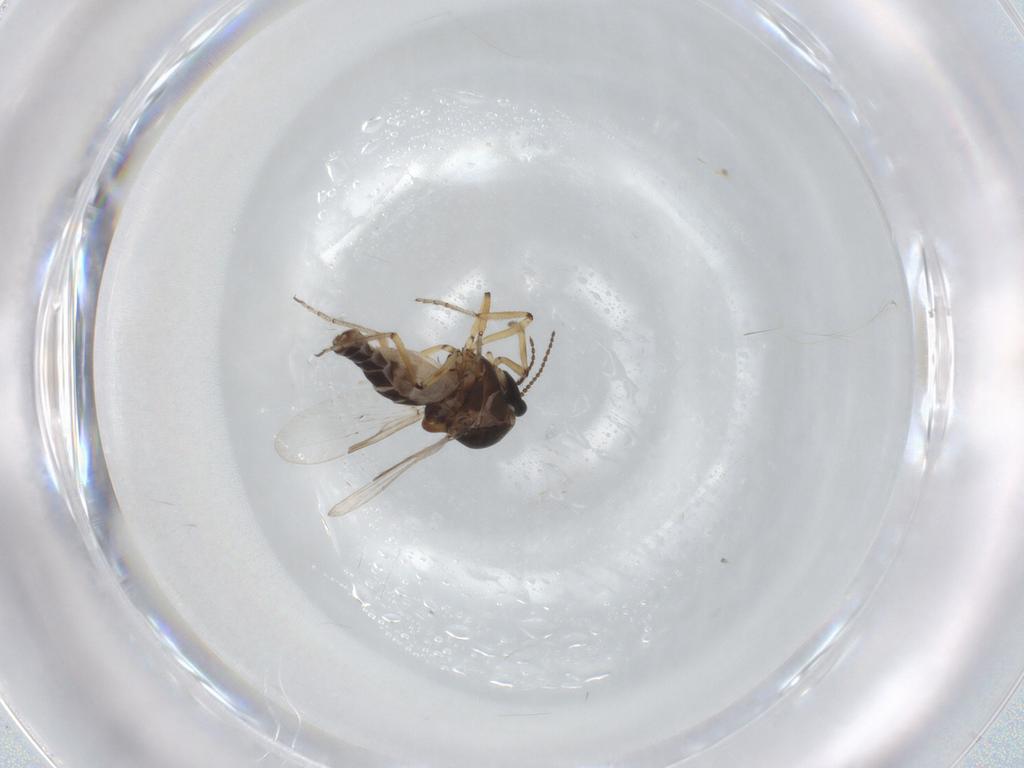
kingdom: Animalia
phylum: Arthropoda
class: Insecta
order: Diptera
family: Ceratopogonidae
